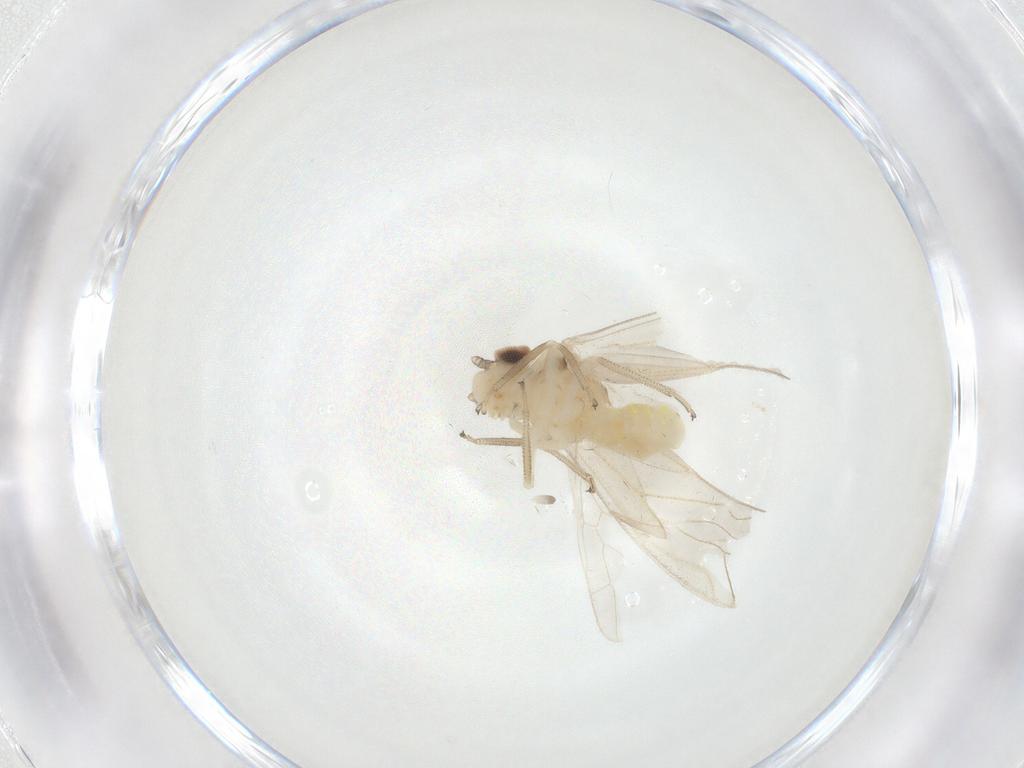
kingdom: Animalia
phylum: Arthropoda
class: Insecta
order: Psocodea
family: Caeciliusidae
